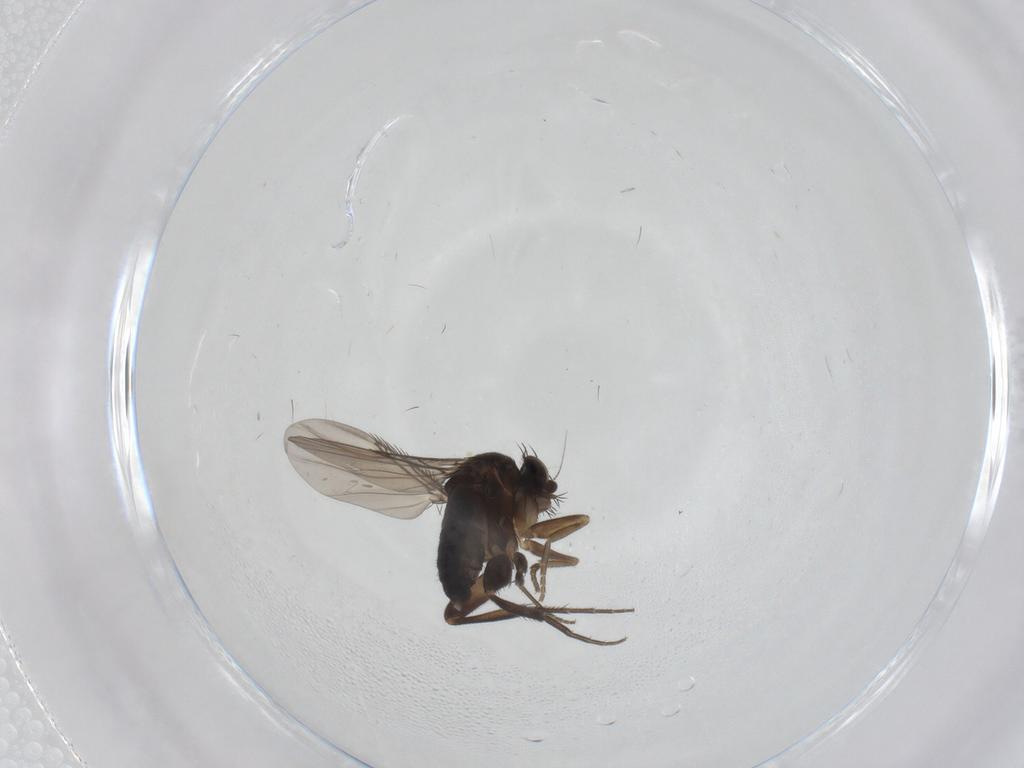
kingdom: Animalia
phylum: Arthropoda
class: Insecta
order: Diptera
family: Phoridae
